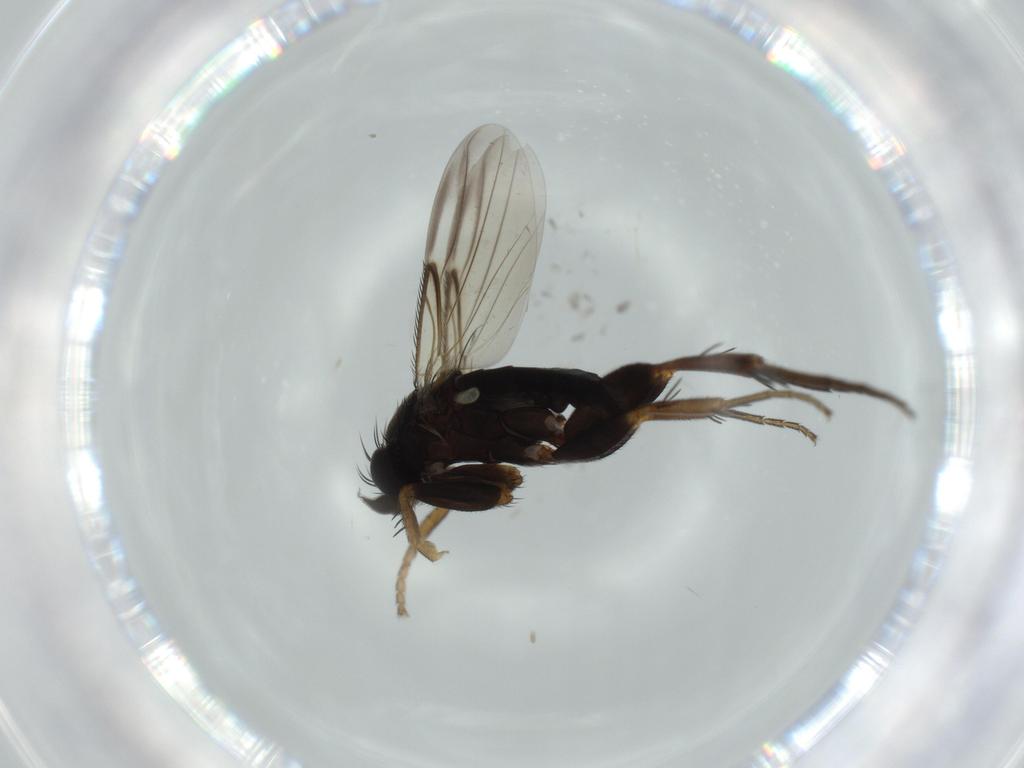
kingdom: Animalia
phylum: Arthropoda
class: Insecta
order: Diptera
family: Phoridae
